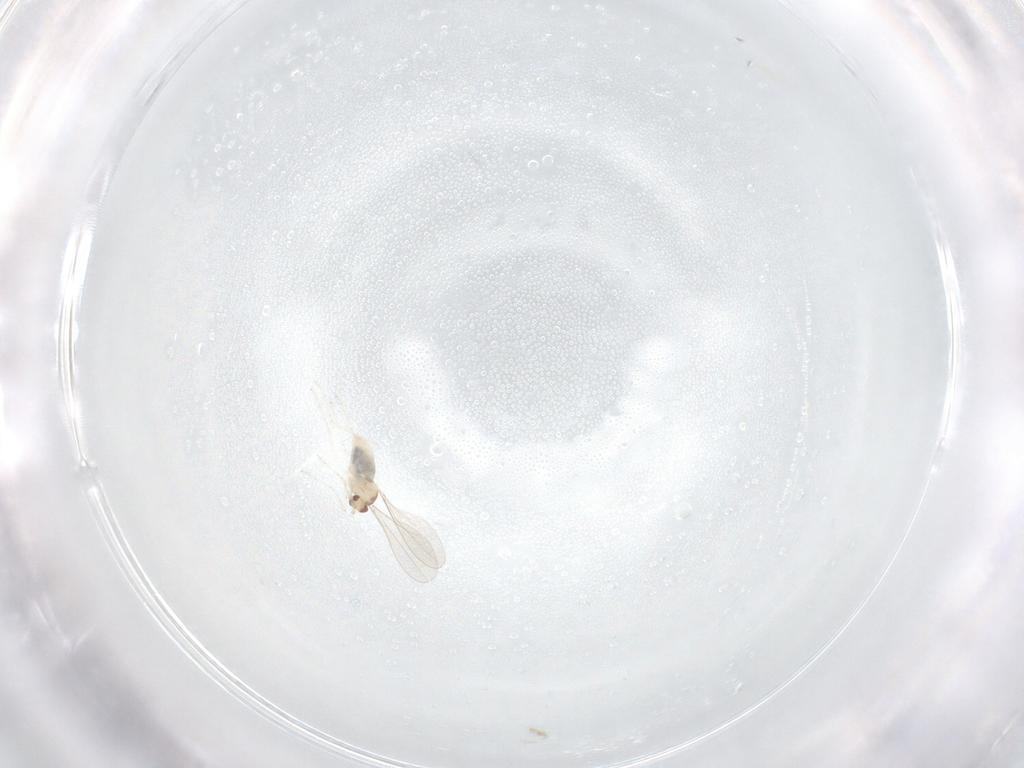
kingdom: Animalia
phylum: Arthropoda
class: Insecta
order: Diptera
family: Cecidomyiidae
